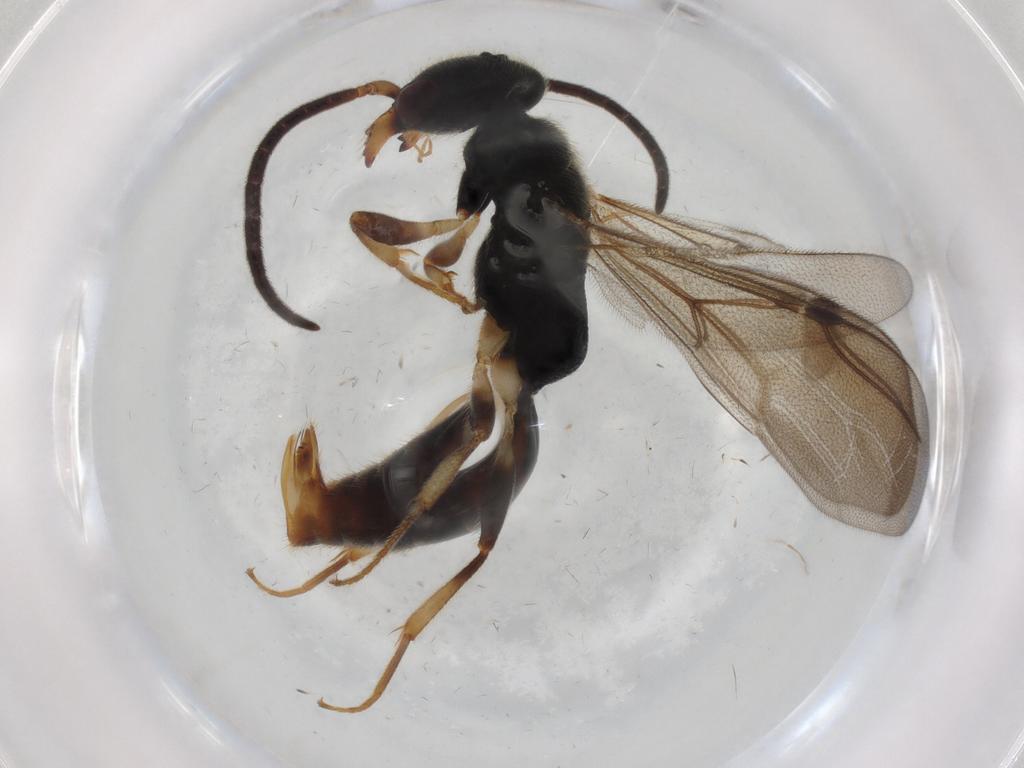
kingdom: Animalia
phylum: Arthropoda
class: Insecta
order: Hymenoptera
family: Bethylidae
